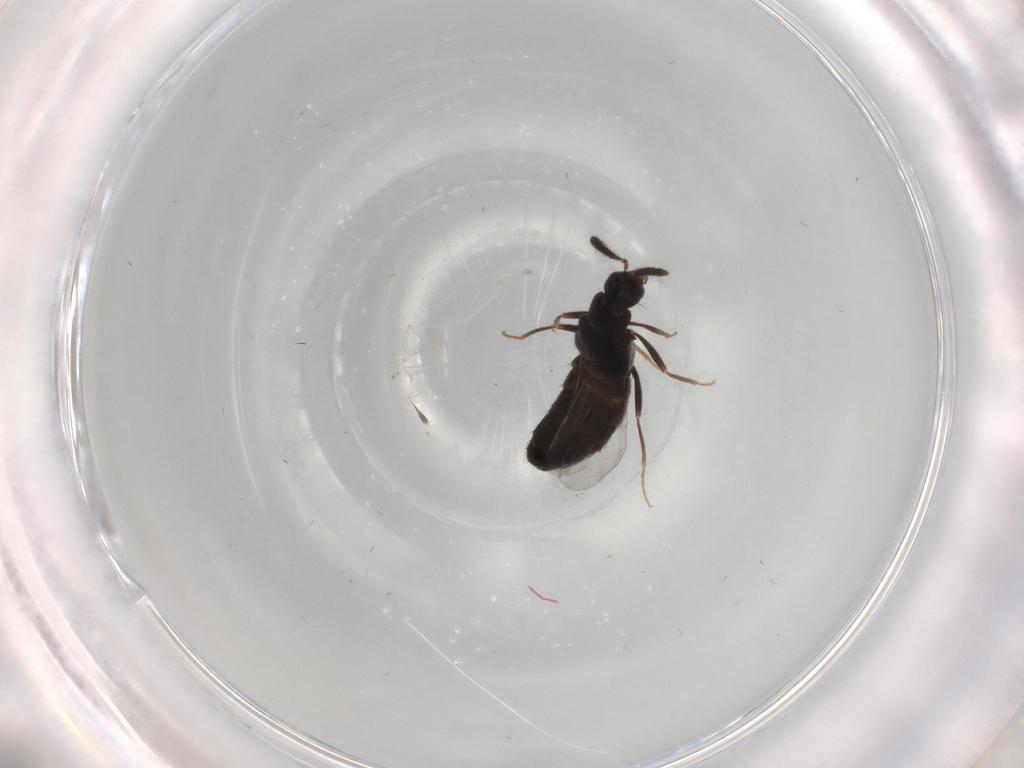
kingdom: Animalia
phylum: Arthropoda
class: Insecta
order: Coleoptera
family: Staphylinidae
